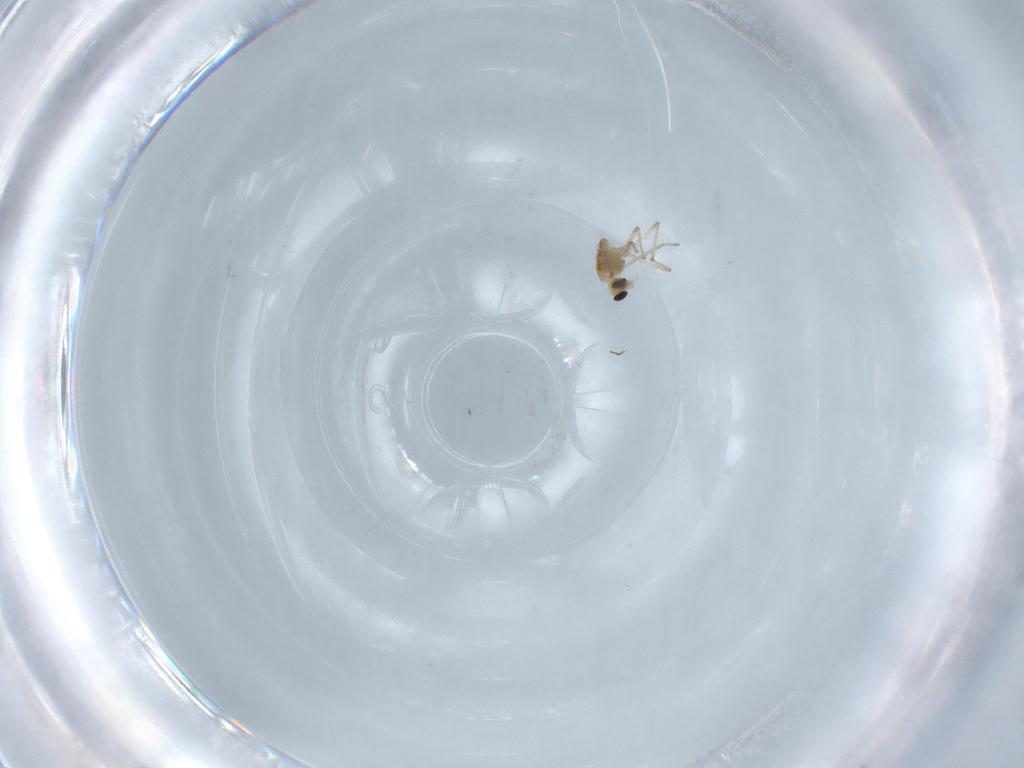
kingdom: Animalia
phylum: Arthropoda
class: Insecta
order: Diptera
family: Chironomidae
